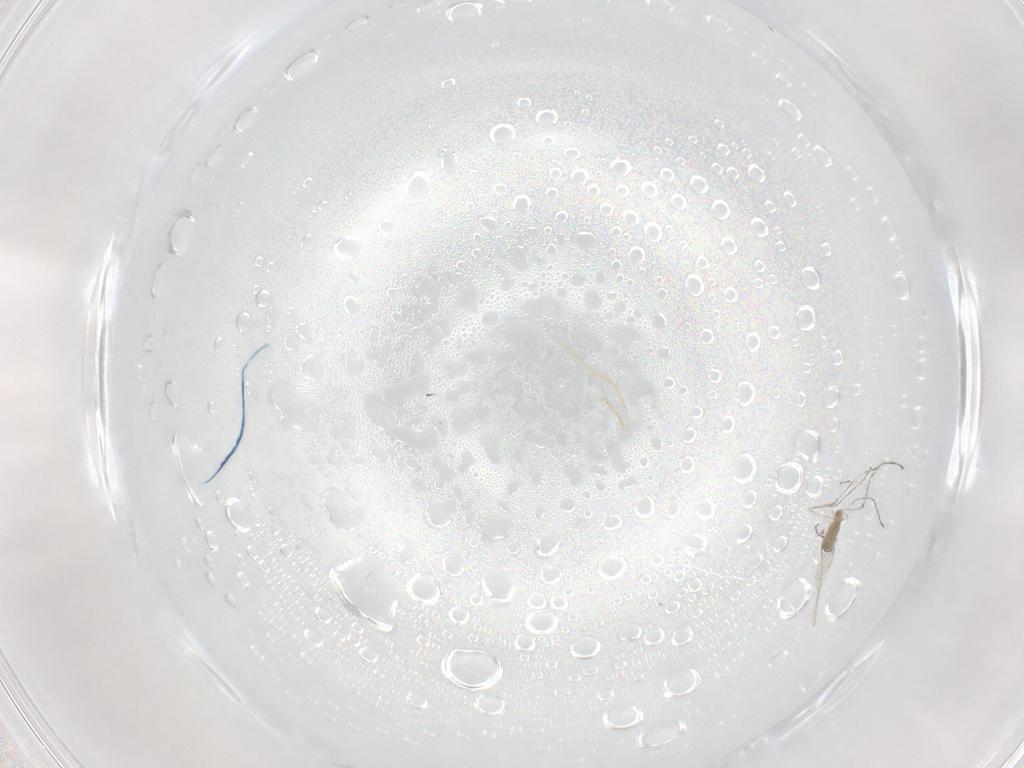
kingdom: Animalia
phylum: Arthropoda
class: Insecta
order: Diptera
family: Cecidomyiidae
